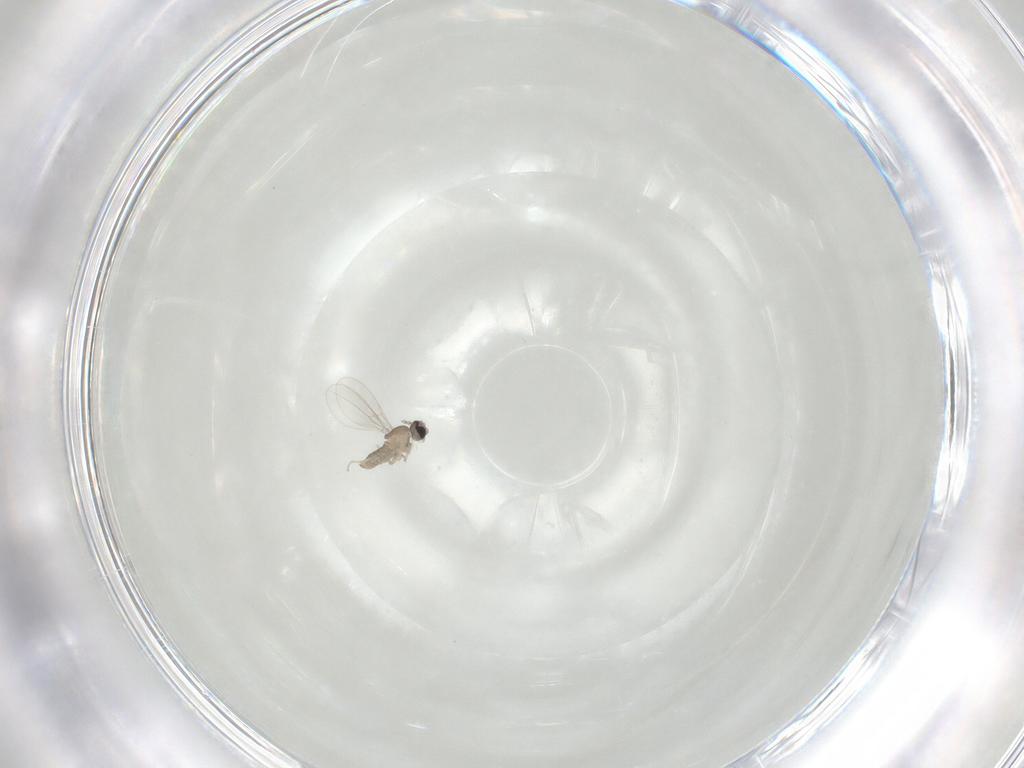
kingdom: Animalia
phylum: Arthropoda
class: Insecta
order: Diptera
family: Cecidomyiidae
